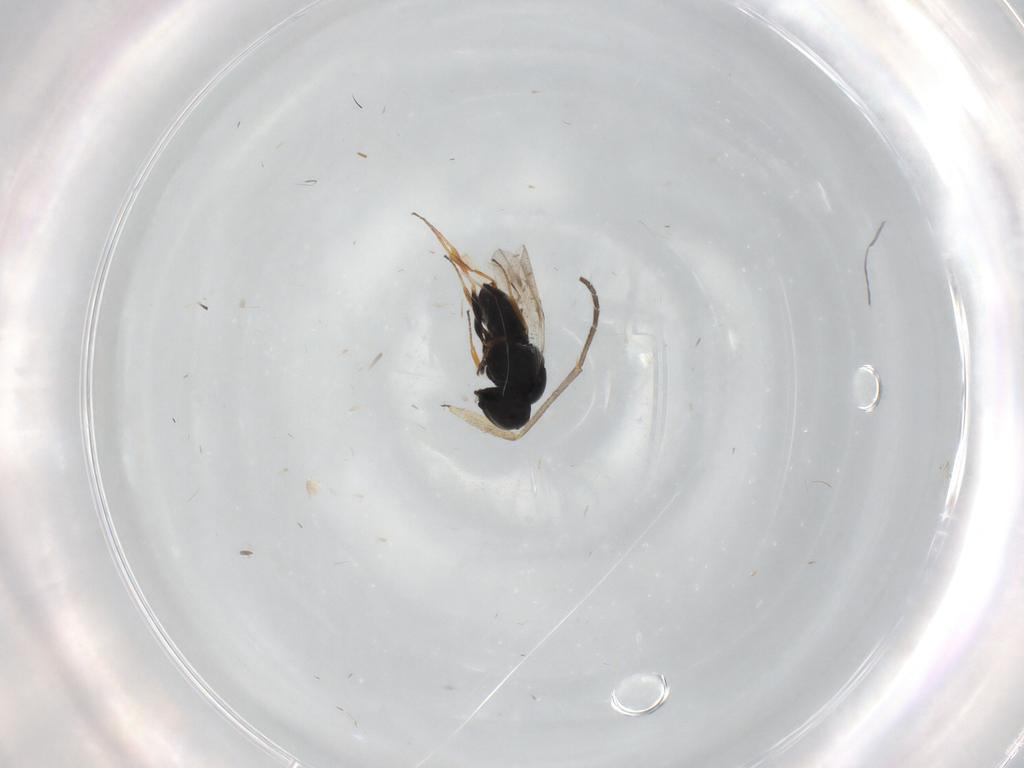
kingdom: Animalia
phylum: Arthropoda
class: Insecta
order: Hymenoptera
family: Scelionidae
